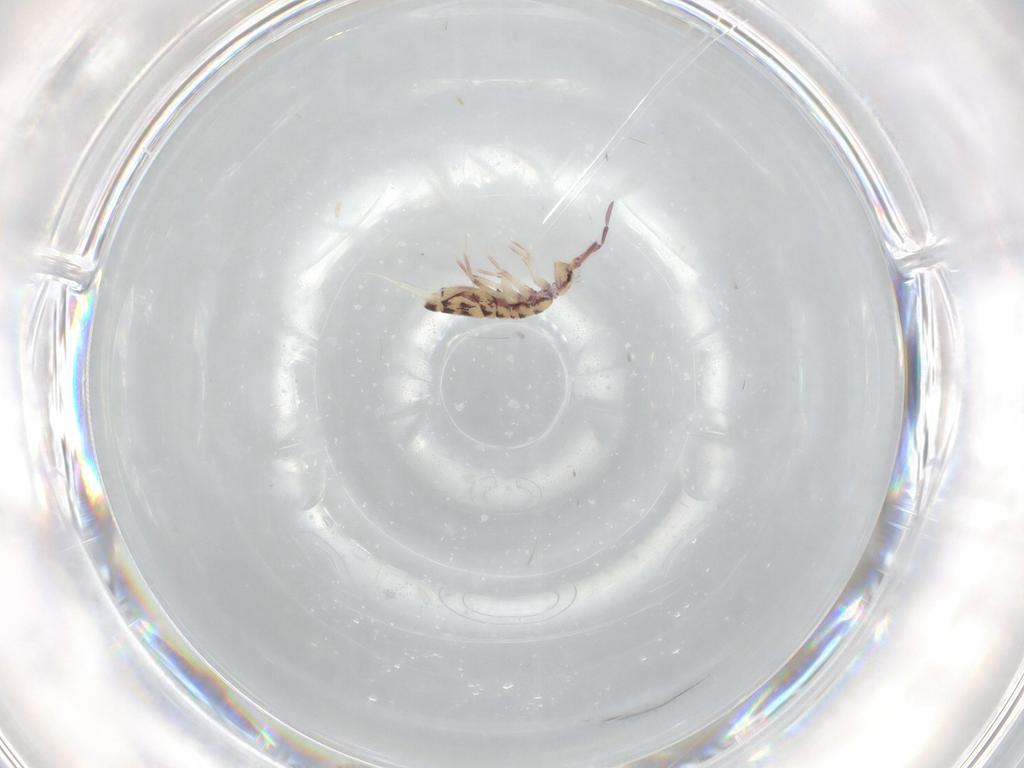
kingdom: Animalia
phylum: Arthropoda
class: Collembola
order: Entomobryomorpha
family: Entomobryidae
